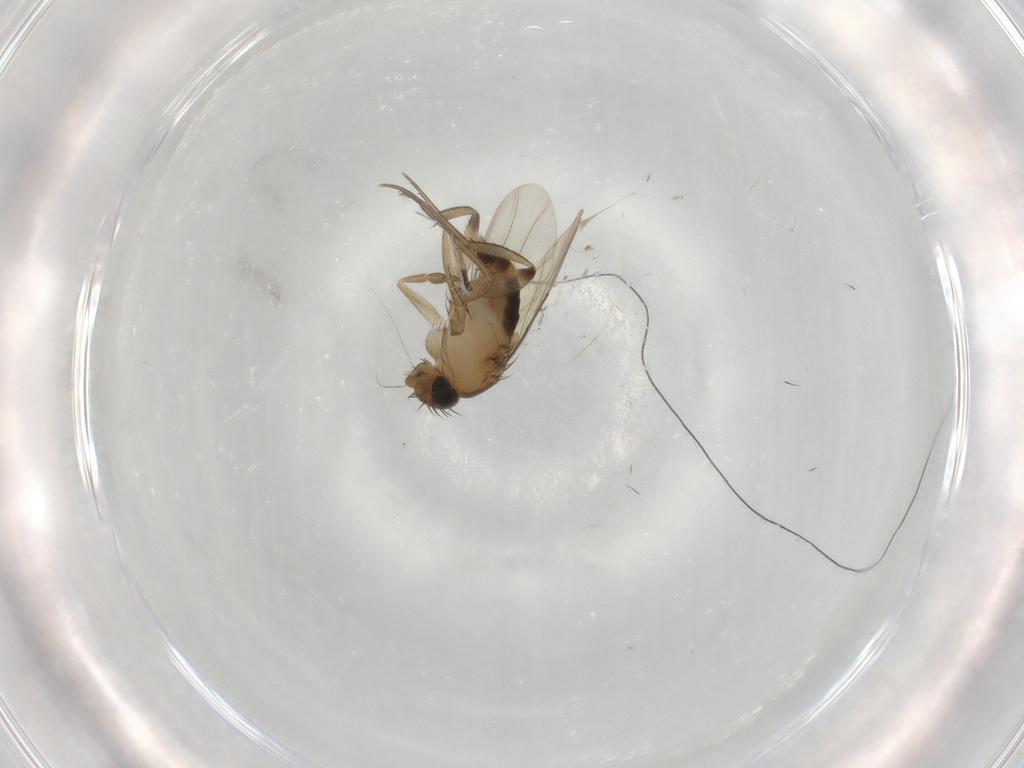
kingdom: Animalia
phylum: Arthropoda
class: Insecta
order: Diptera
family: Phoridae
